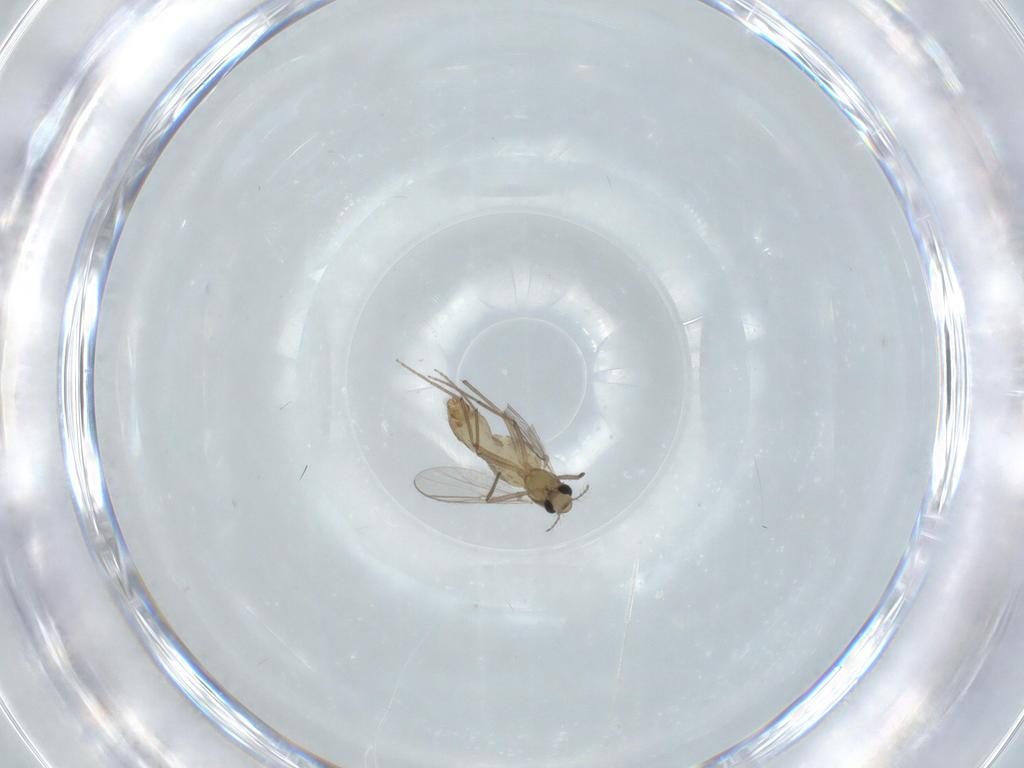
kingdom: Animalia
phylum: Arthropoda
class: Insecta
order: Diptera
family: Chironomidae
